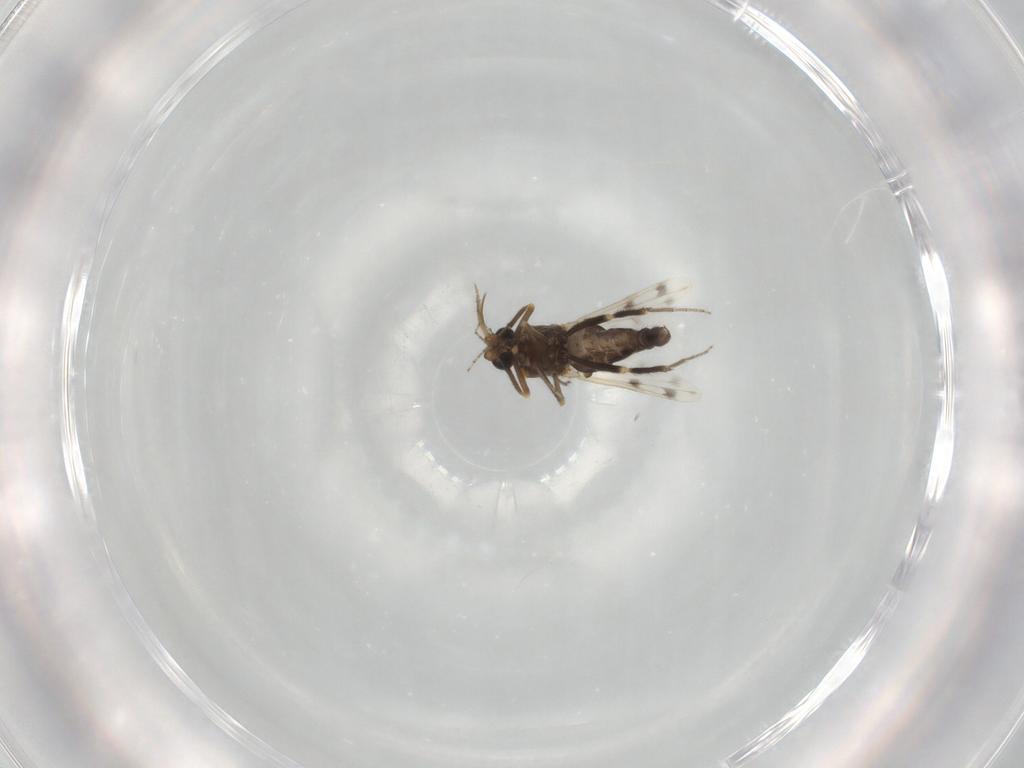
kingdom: Animalia
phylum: Arthropoda
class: Insecta
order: Diptera
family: Ceratopogonidae
